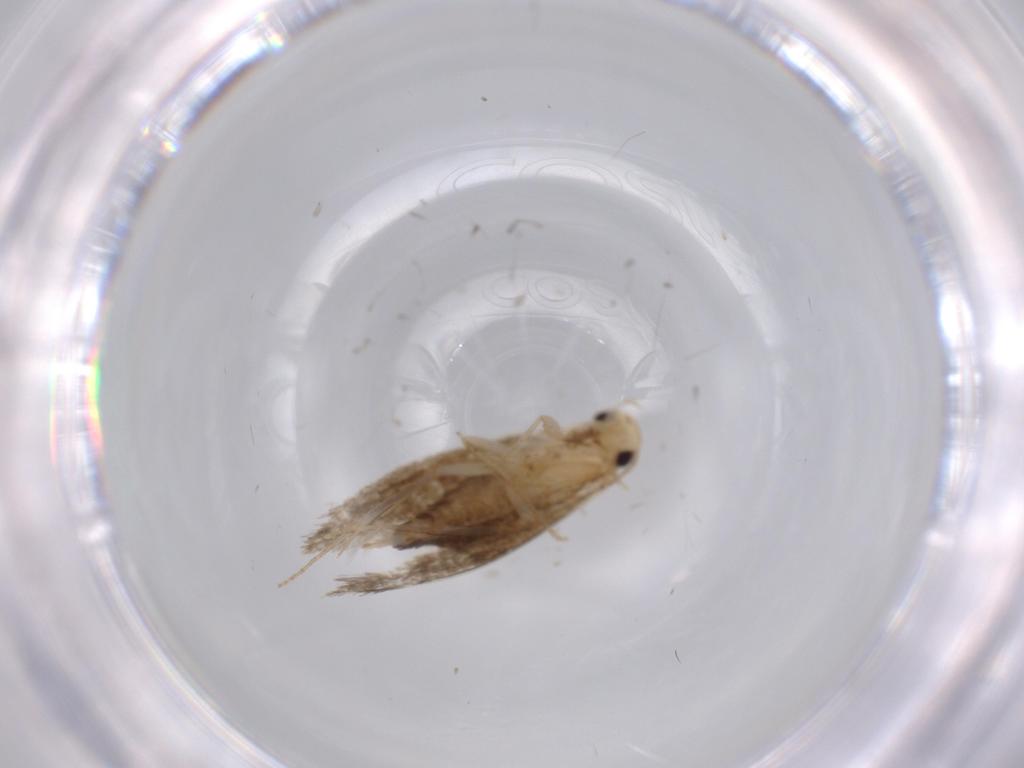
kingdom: Animalia
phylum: Arthropoda
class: Insecta
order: Lepidoptera
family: Tineidae
